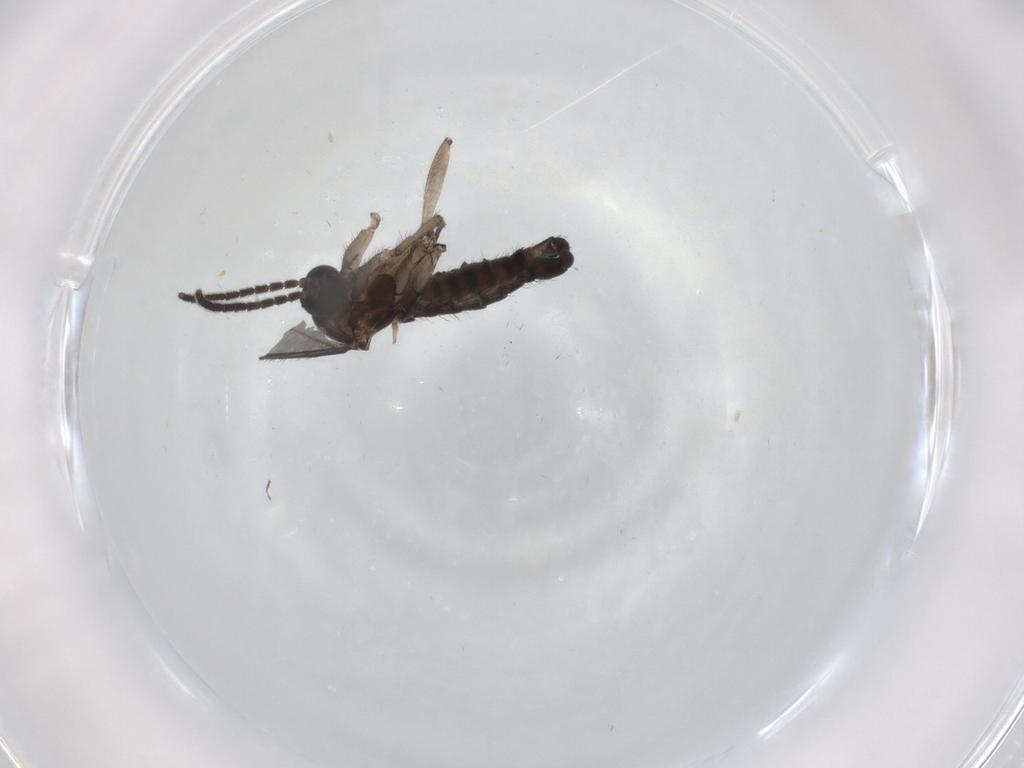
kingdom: Animalia
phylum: Arthropoda
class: Insecta
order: Diptera
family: Sciaridae
